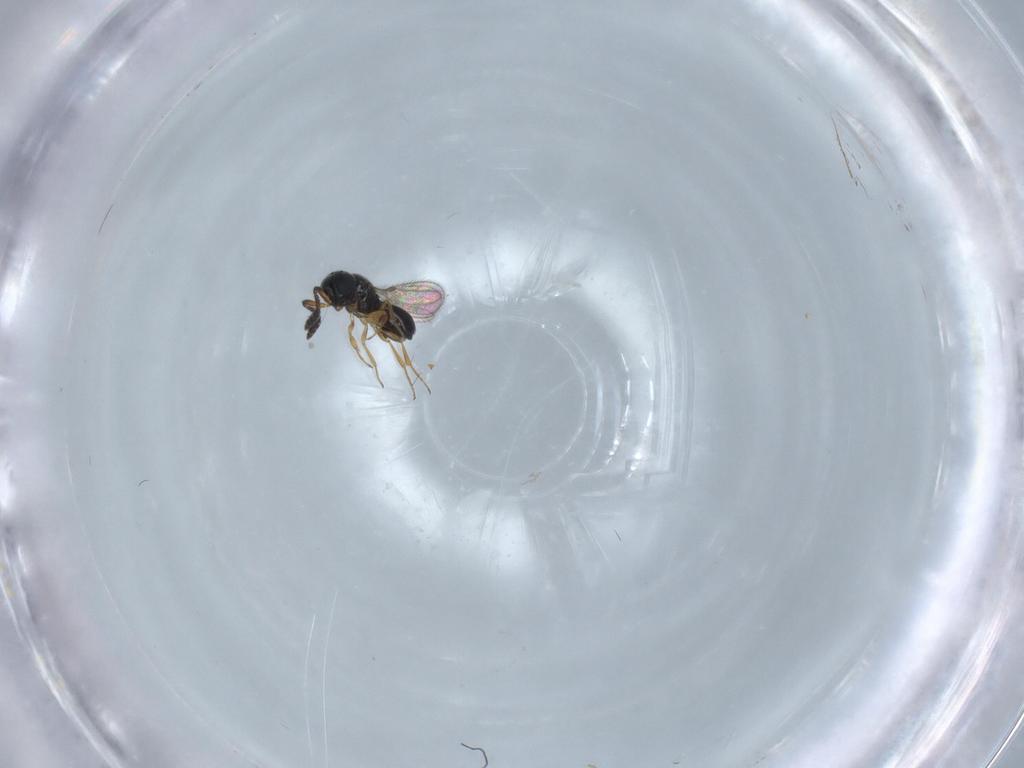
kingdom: Animalia
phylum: Arthropoda
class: Insecta
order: Hymenoptera
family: Scelionidae
